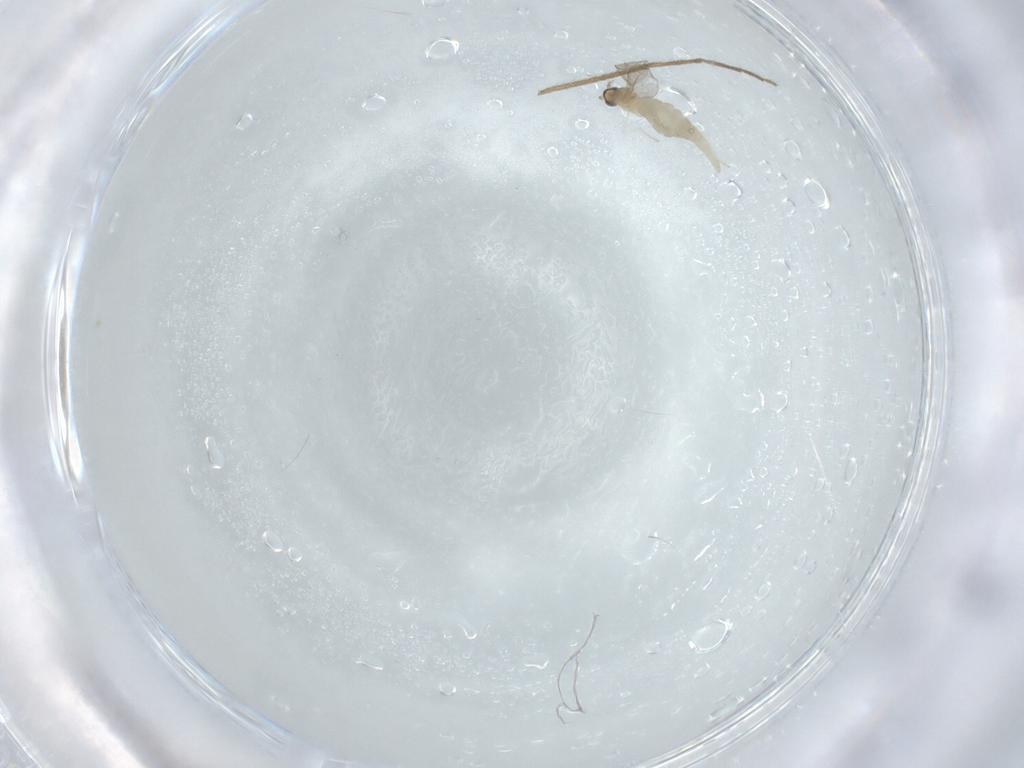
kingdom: Animalia
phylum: Arthropoda
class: Insecta
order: Diptera
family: Cecidomyiidae
